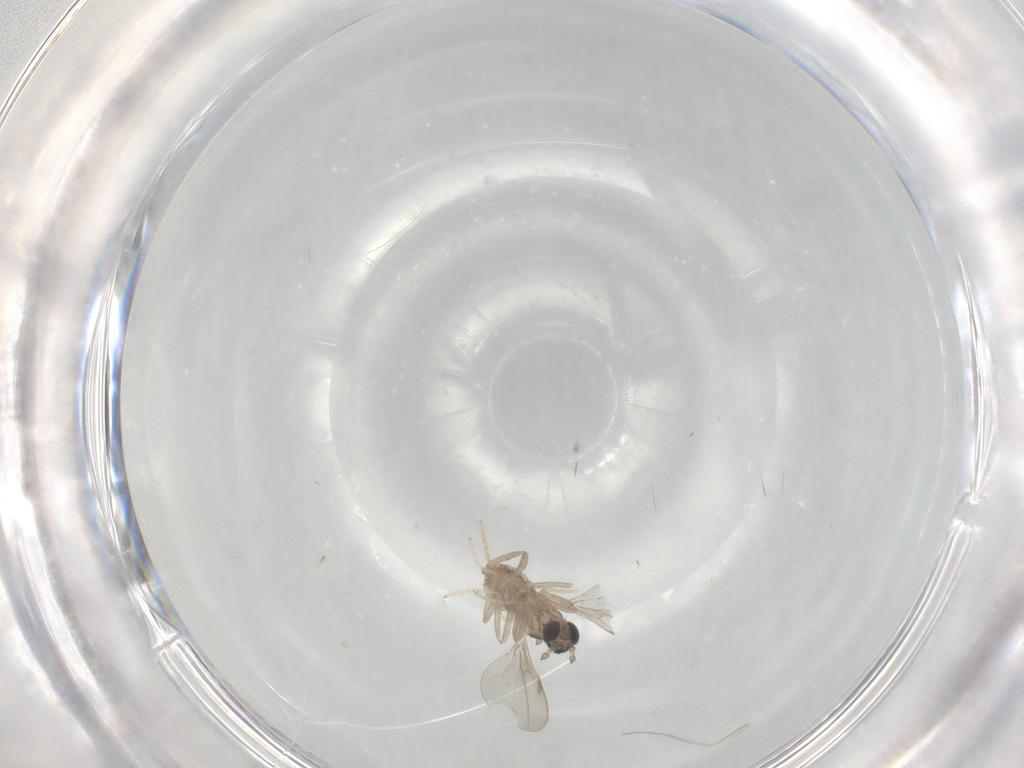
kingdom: Animalia
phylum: Arthropoda
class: Insecta
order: Diptera
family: Cecidomyiidae
